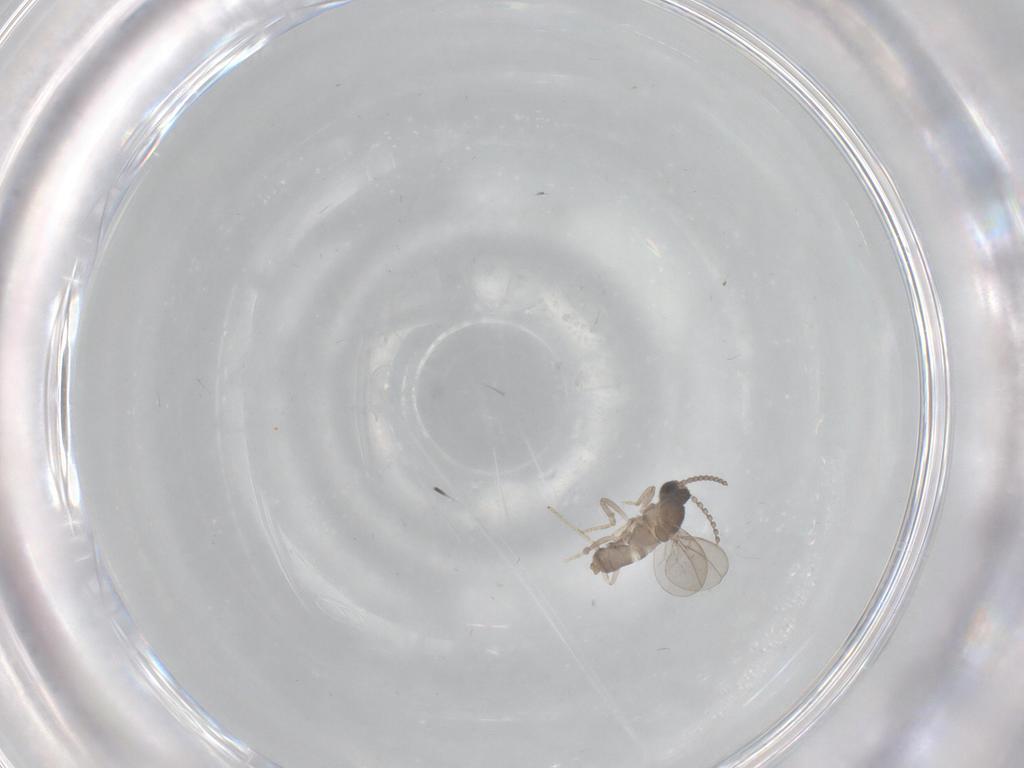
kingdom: Animalia
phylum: Arthropoda
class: Insecta
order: Diptera
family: Cecidomyiidae
